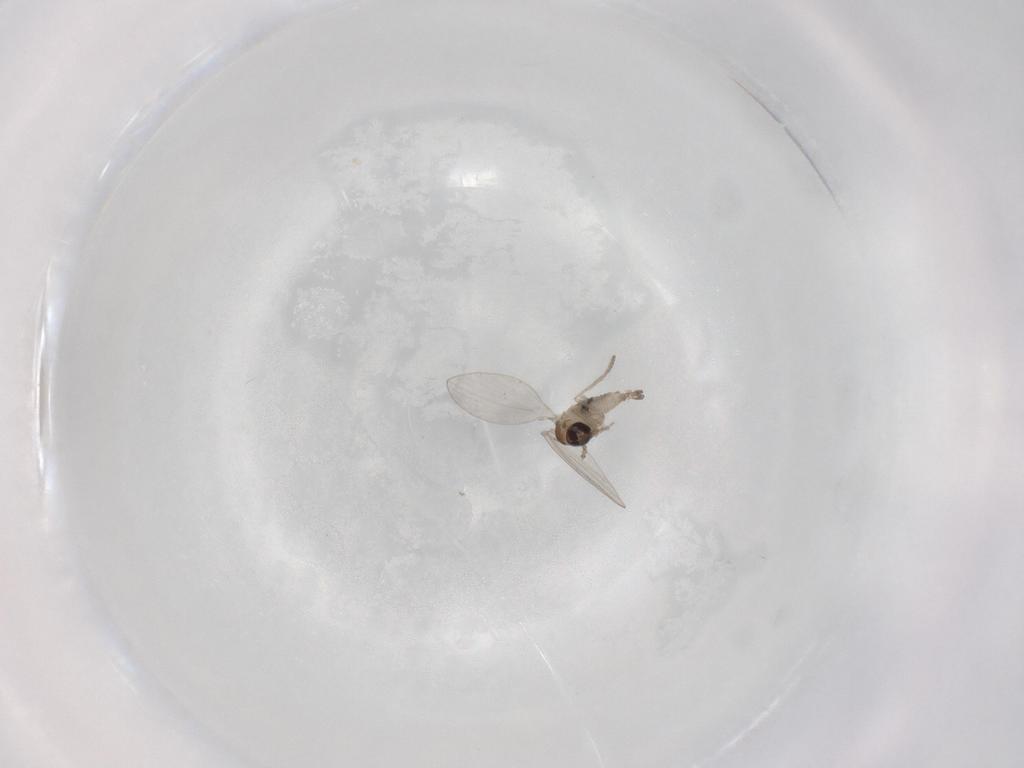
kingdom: Animalia
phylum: Arthropoda
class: Insecta
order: Diptera
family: Psychodidae
